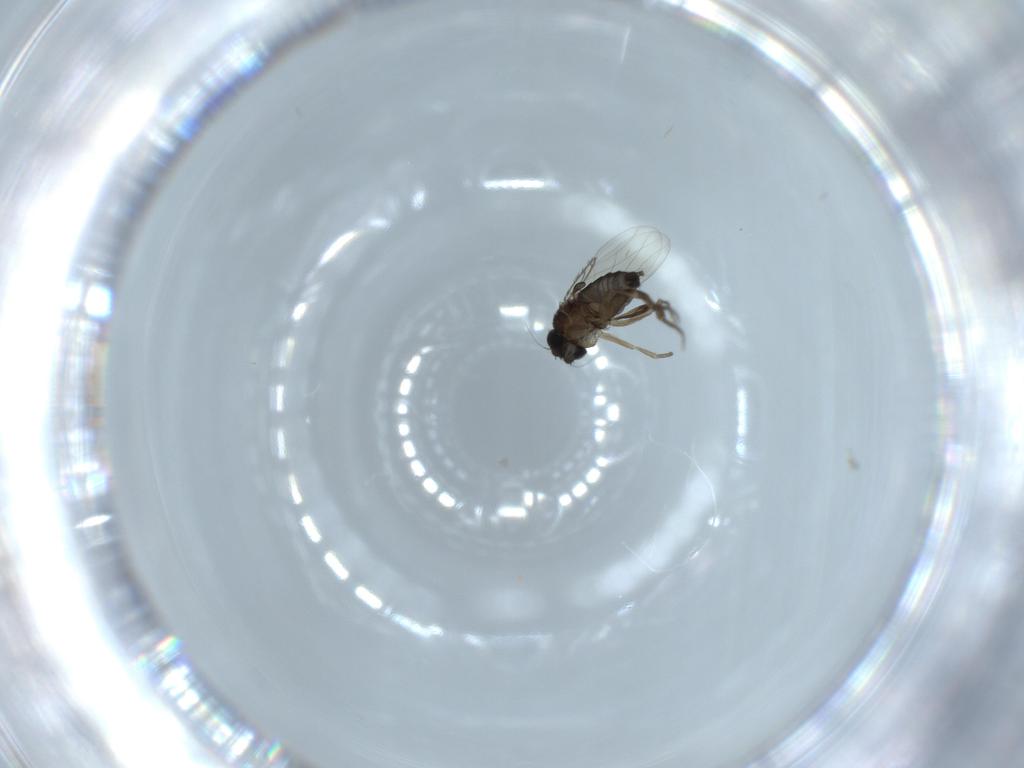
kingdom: Animalia
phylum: Arthropoda
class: Insecta
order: Diptera
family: Phoridae
